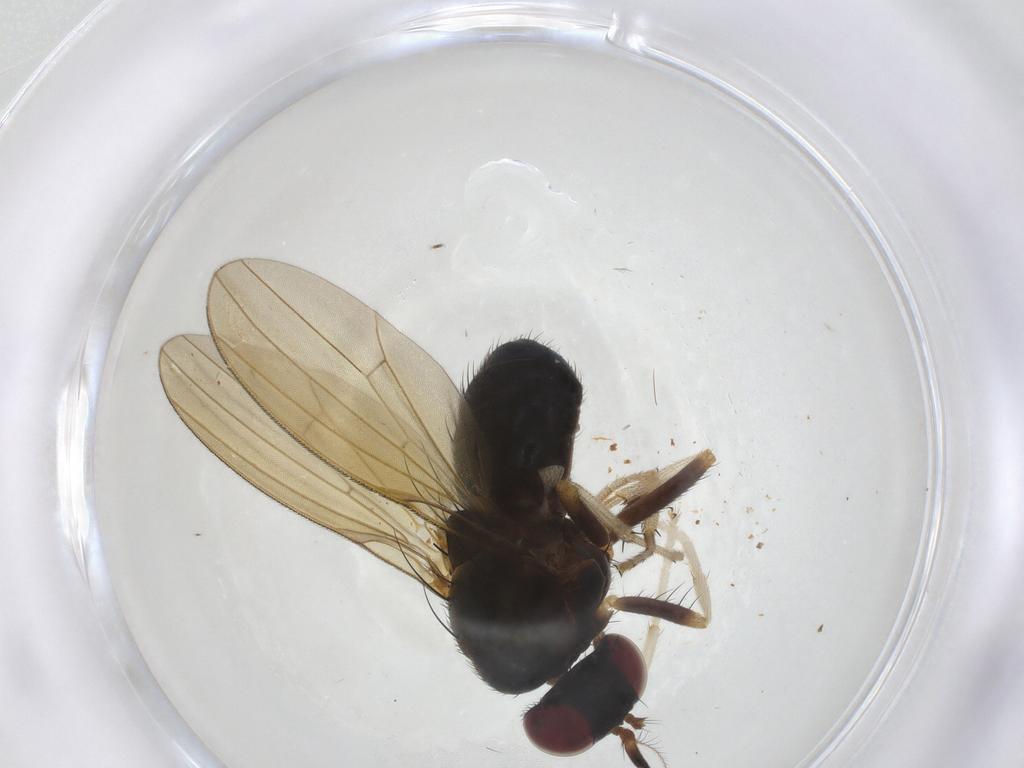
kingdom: Animalia
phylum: Arthropoda
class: Insecta
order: Diptera
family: Lauxaniidae
